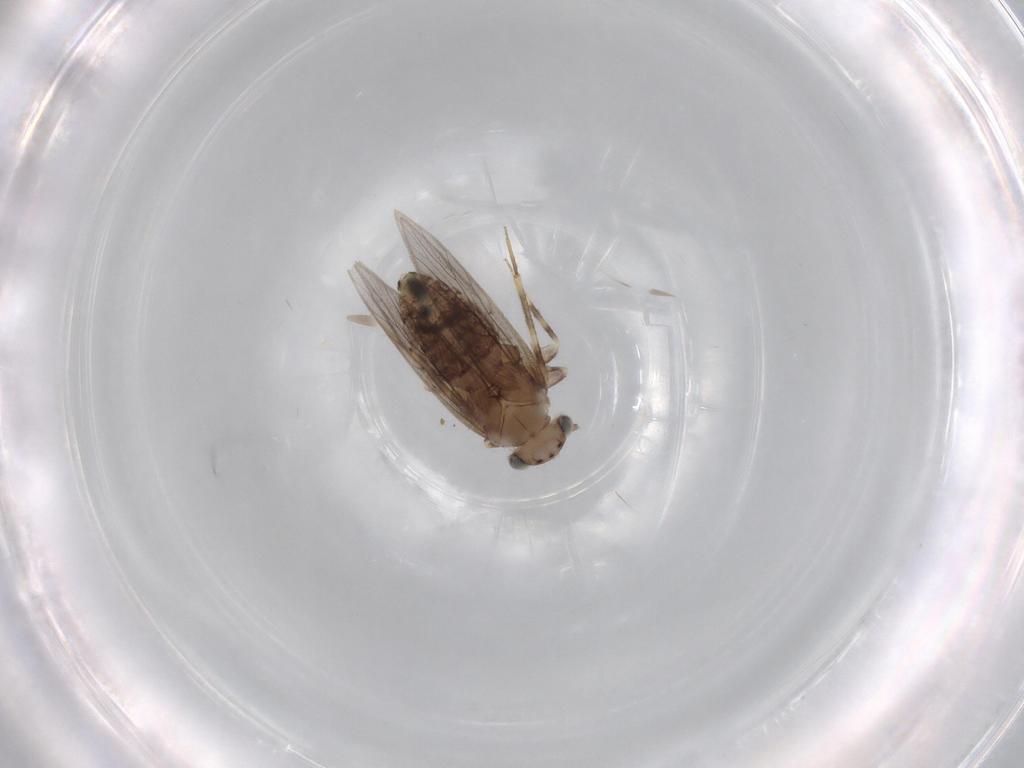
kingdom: Animalia
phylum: Arthropoda
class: Insecta
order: Psocodea
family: Lepidopsocidae
